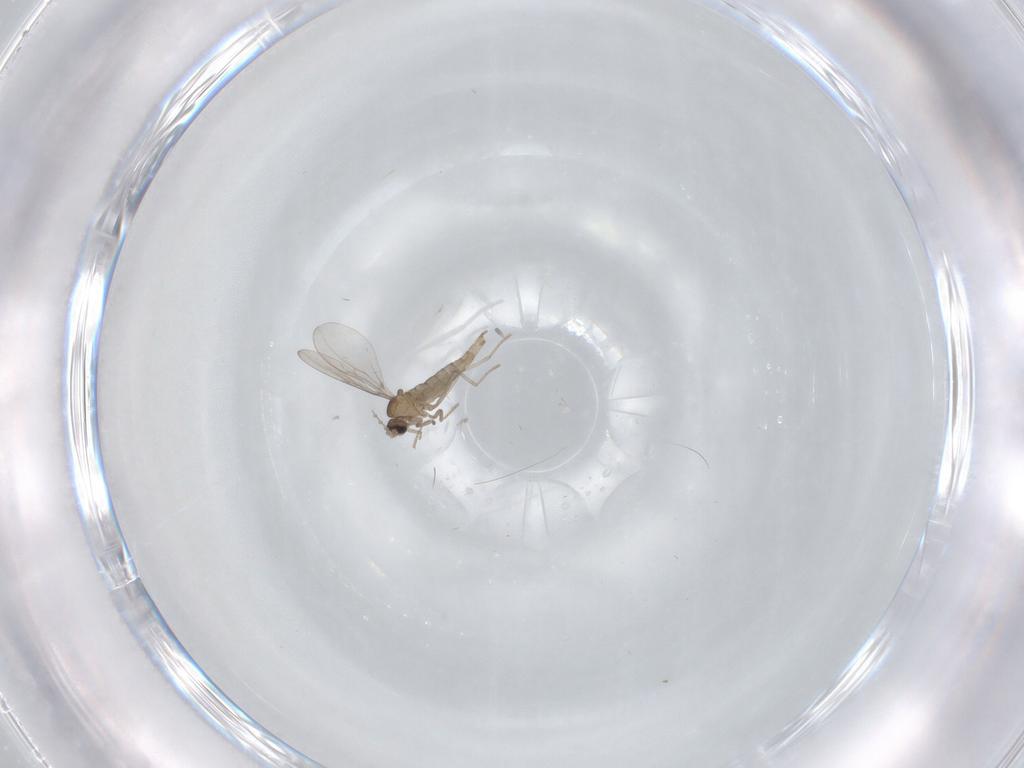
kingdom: Animalia
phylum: Arthropoda
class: Insecta
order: Diptera
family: Cecidomyiidae
